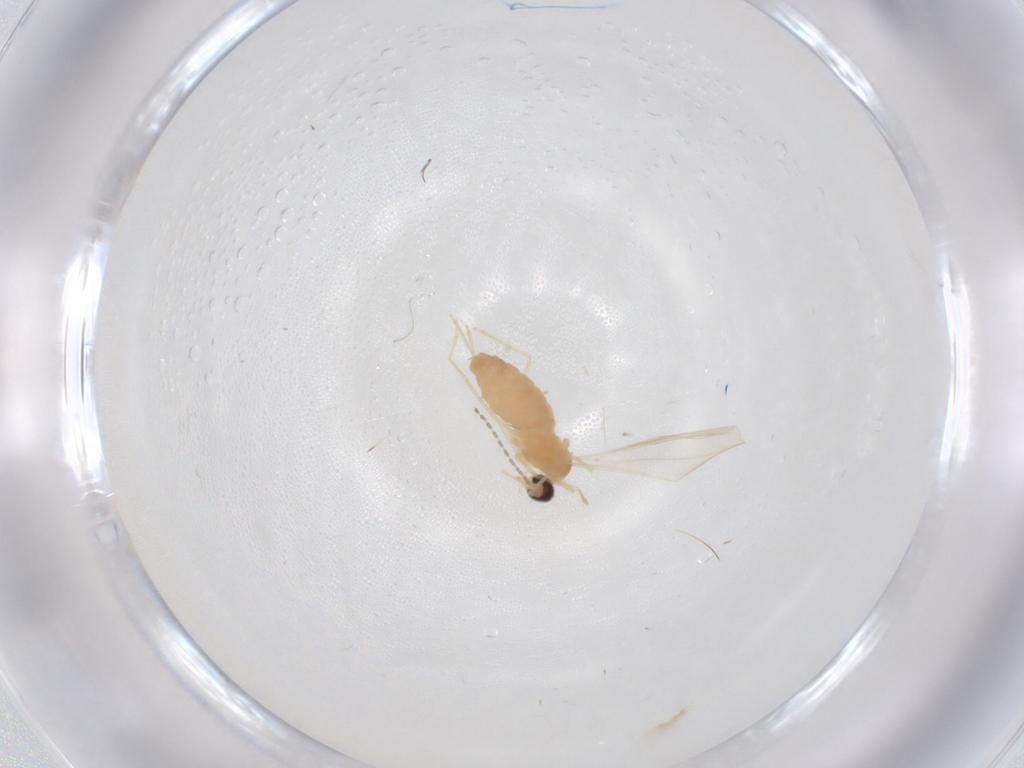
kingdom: Animalia
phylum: Arthropoda
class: Insecta
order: Diptera
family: Cecidomyiidae
